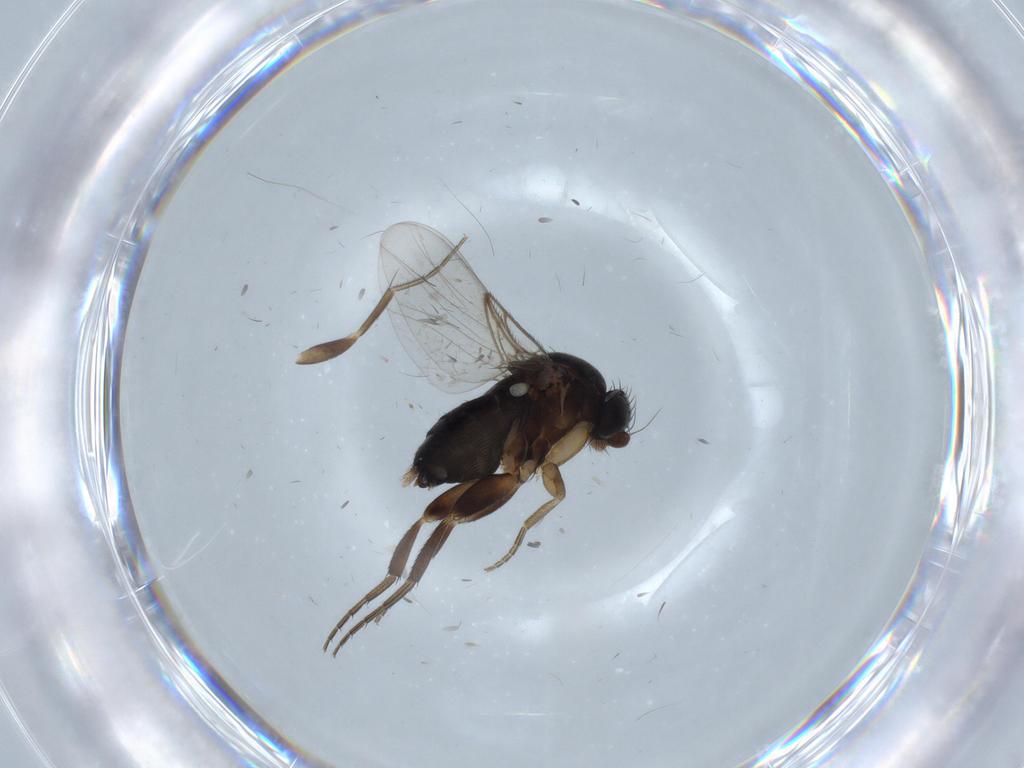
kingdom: Animalia
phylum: Arthropoda
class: Insecta
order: Diptera
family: Phoridae
